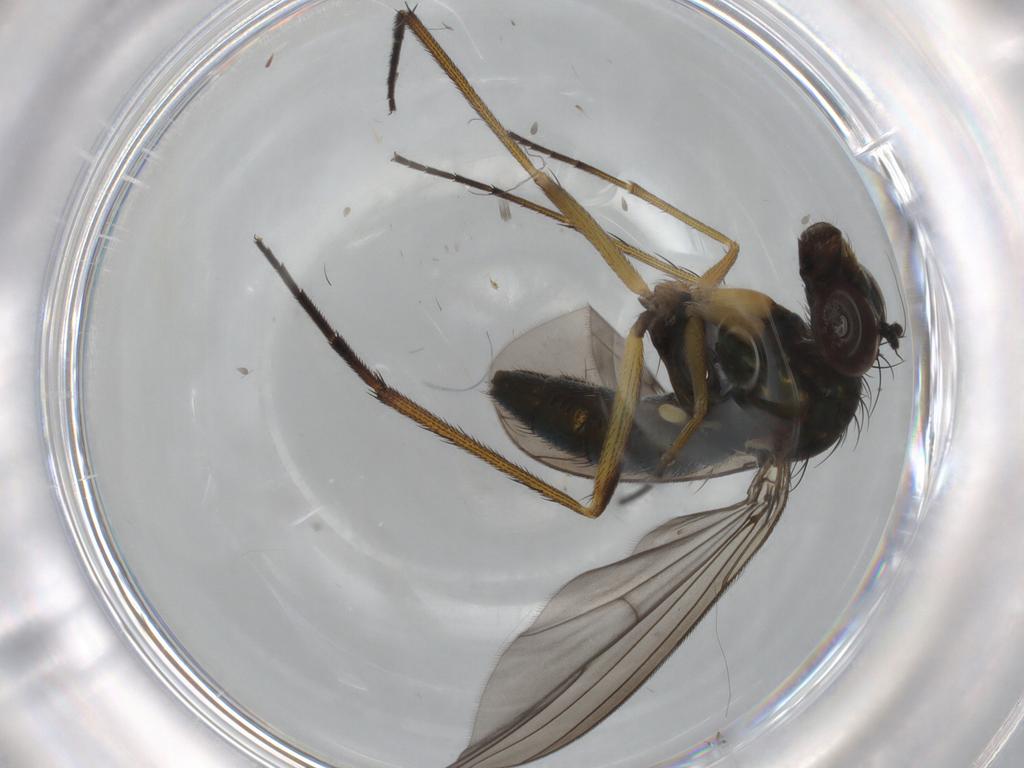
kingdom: Animalia
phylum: Arthropoda
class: Insecta
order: Diptera
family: Dolichopodidae
